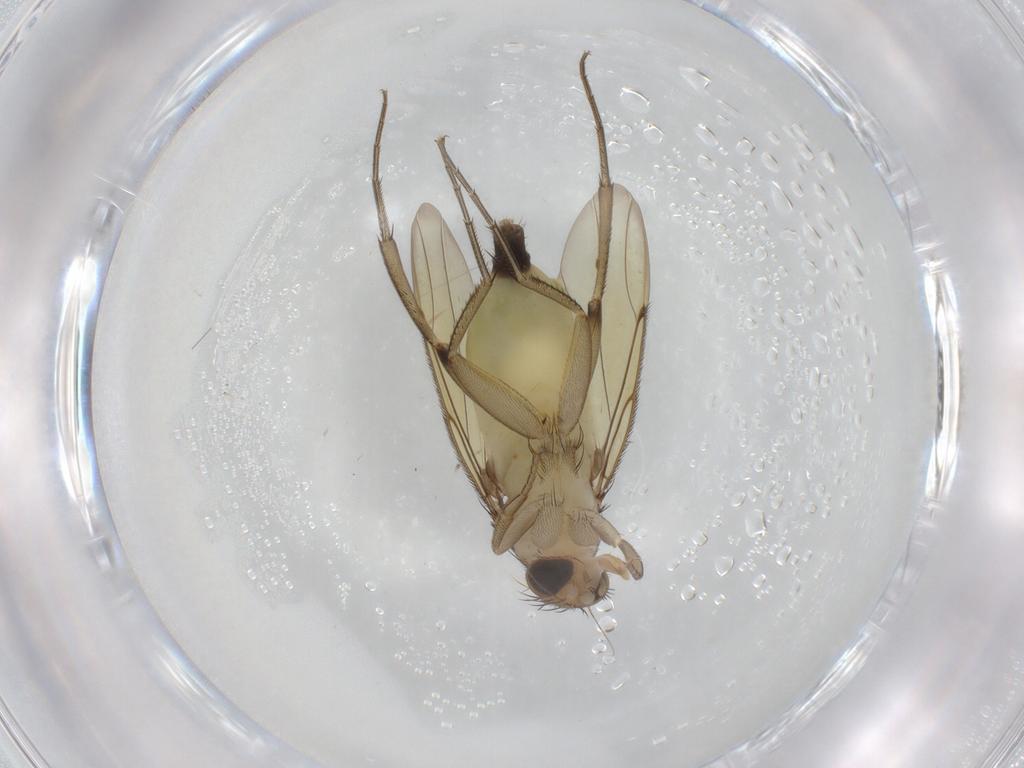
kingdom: Animalia
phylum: Arthropoda
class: Insecta
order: Diptera
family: Phoridae
